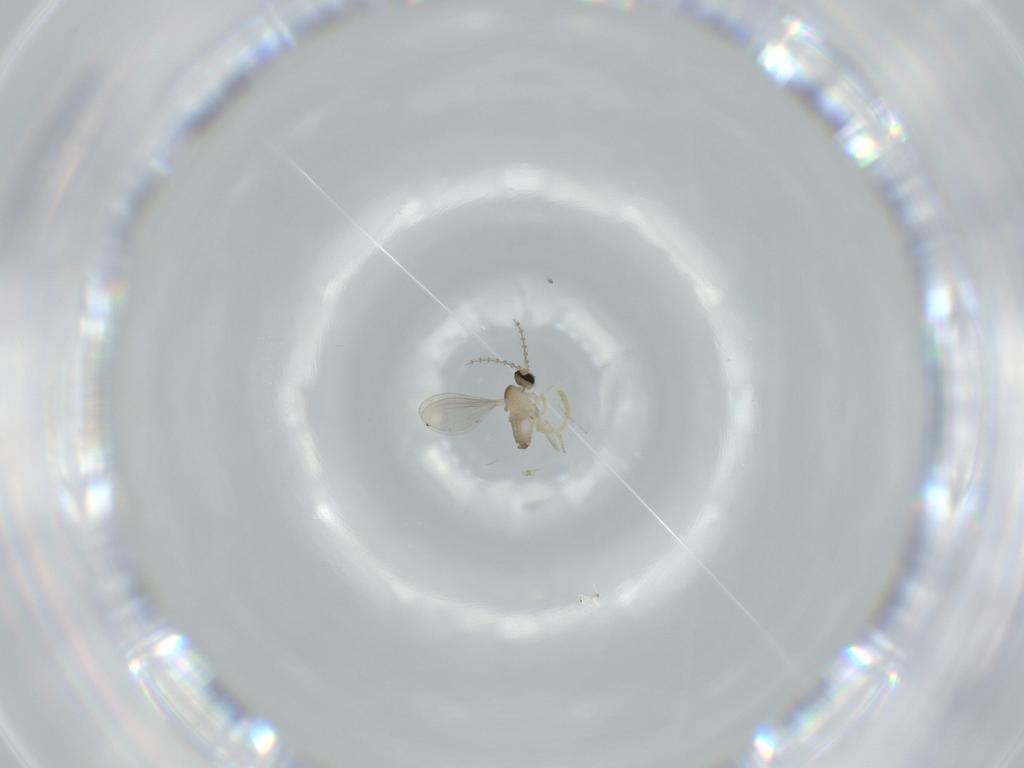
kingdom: Animalia
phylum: Arthropoda
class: Insecta
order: Diptera
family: Cecidomyiidae
